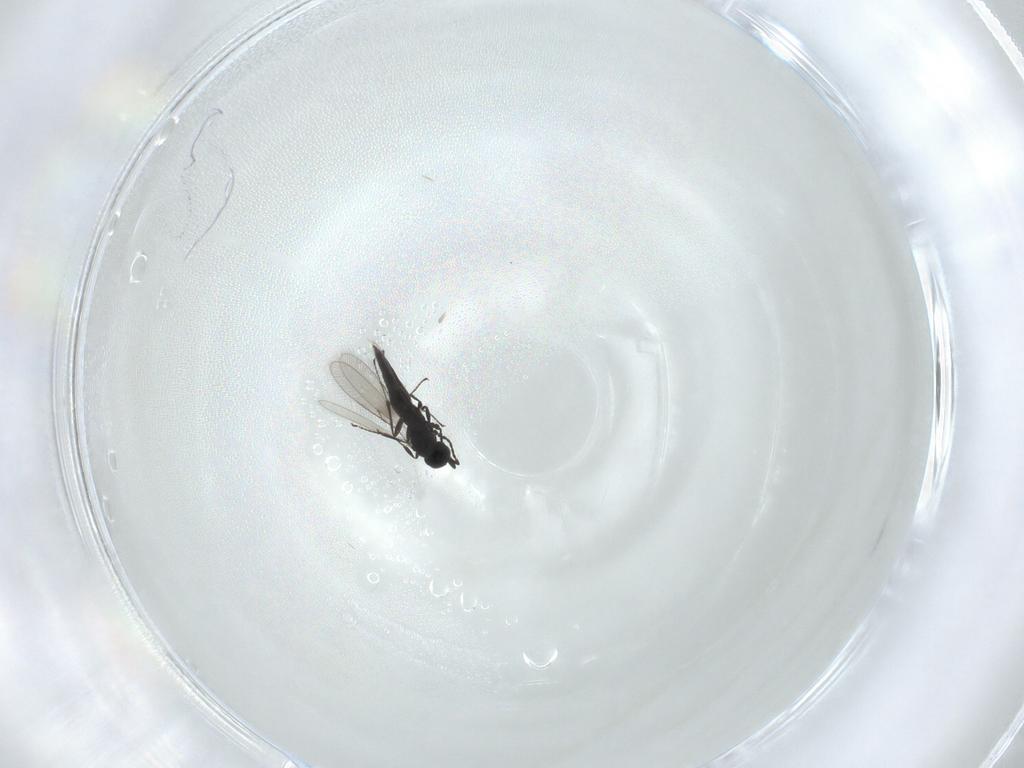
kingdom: Animalia
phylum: Arthropoda
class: Insecta
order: Hymenoptera
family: Scelionidae
